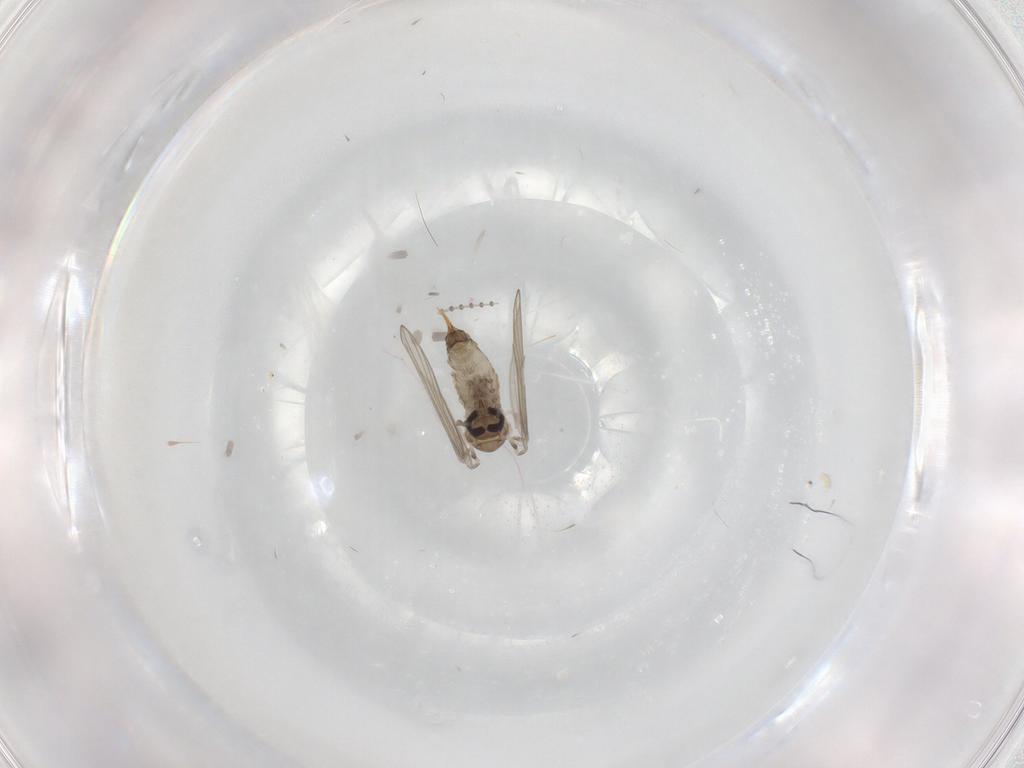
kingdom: Animalia
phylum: Arthropoda
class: Insecta
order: Diptera
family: Psychodidae
